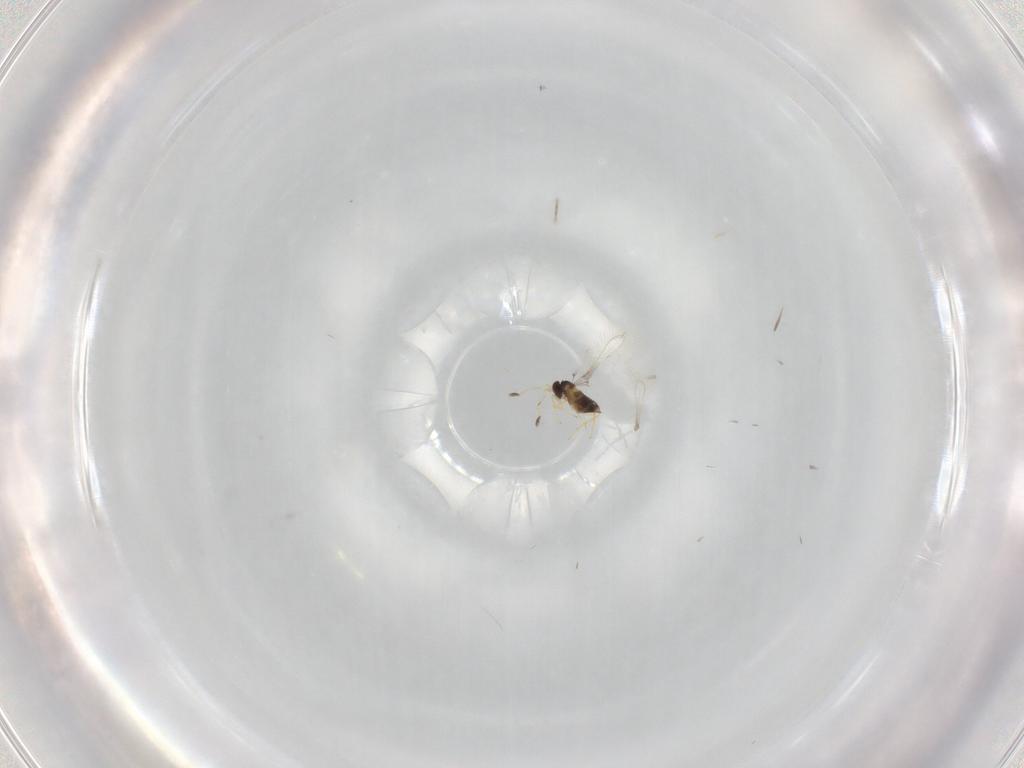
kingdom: Animalia
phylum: Arthropoda
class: Insecta
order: Hymenoptera
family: Mymaridae
